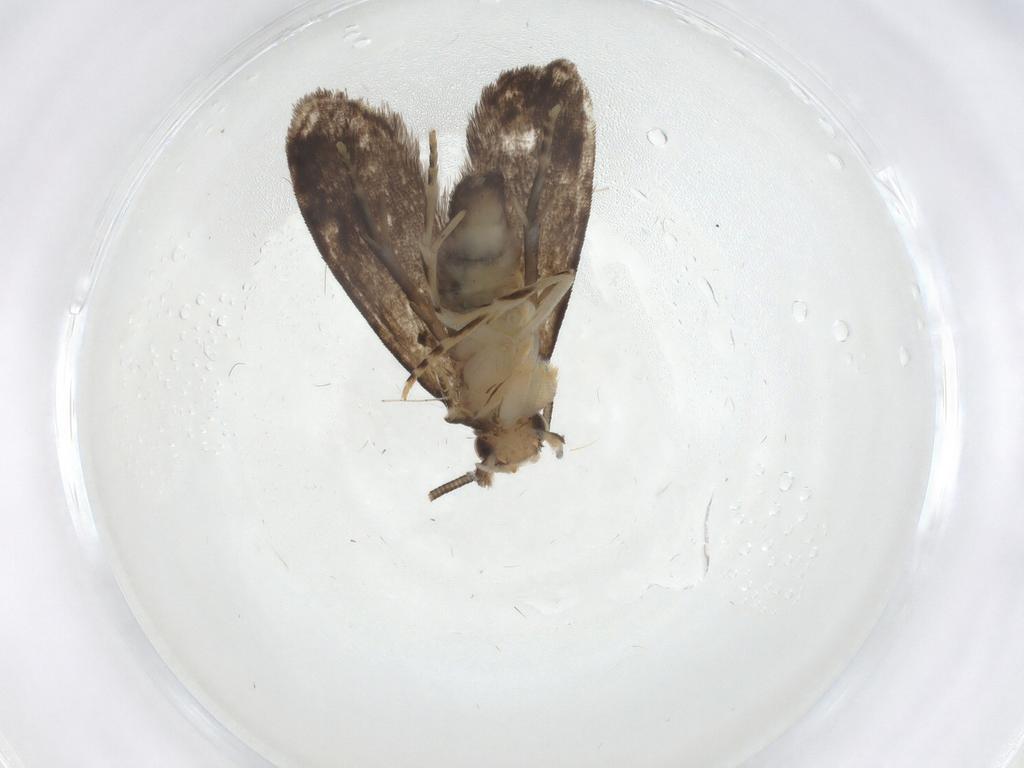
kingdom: Animalia
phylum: Arthropoda
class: Insecta
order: Lepidoptera
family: Dryadaulidae
